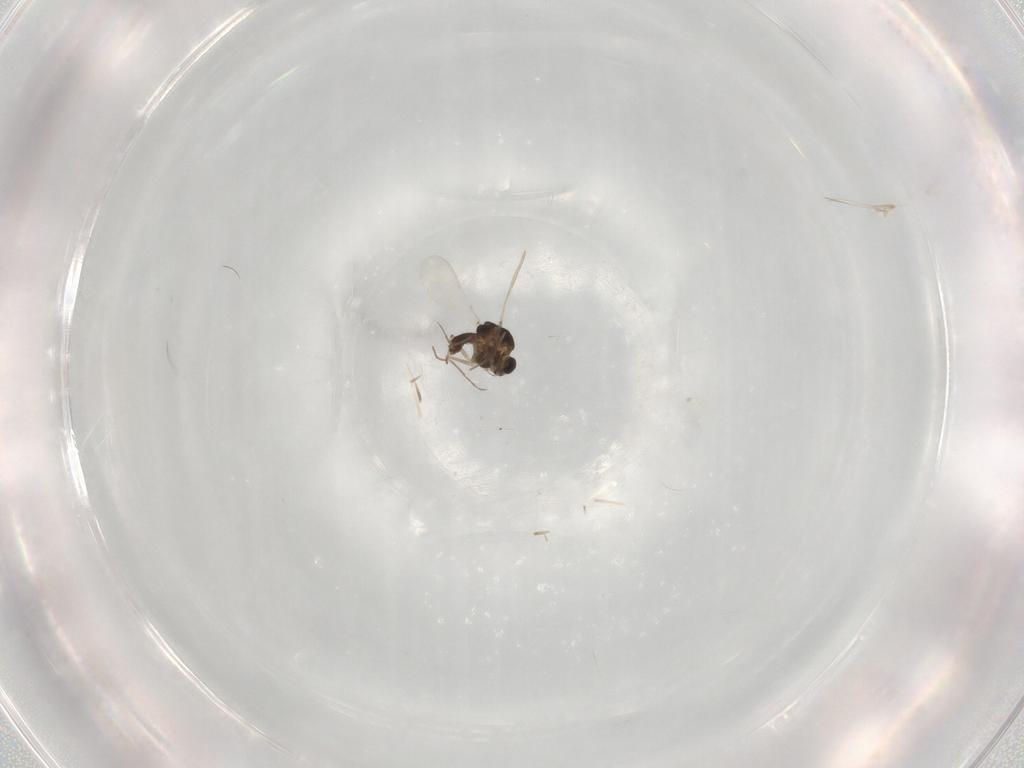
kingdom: Animalia
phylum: Arthropoda
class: Insecta
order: Diptera
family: Chironomidae
